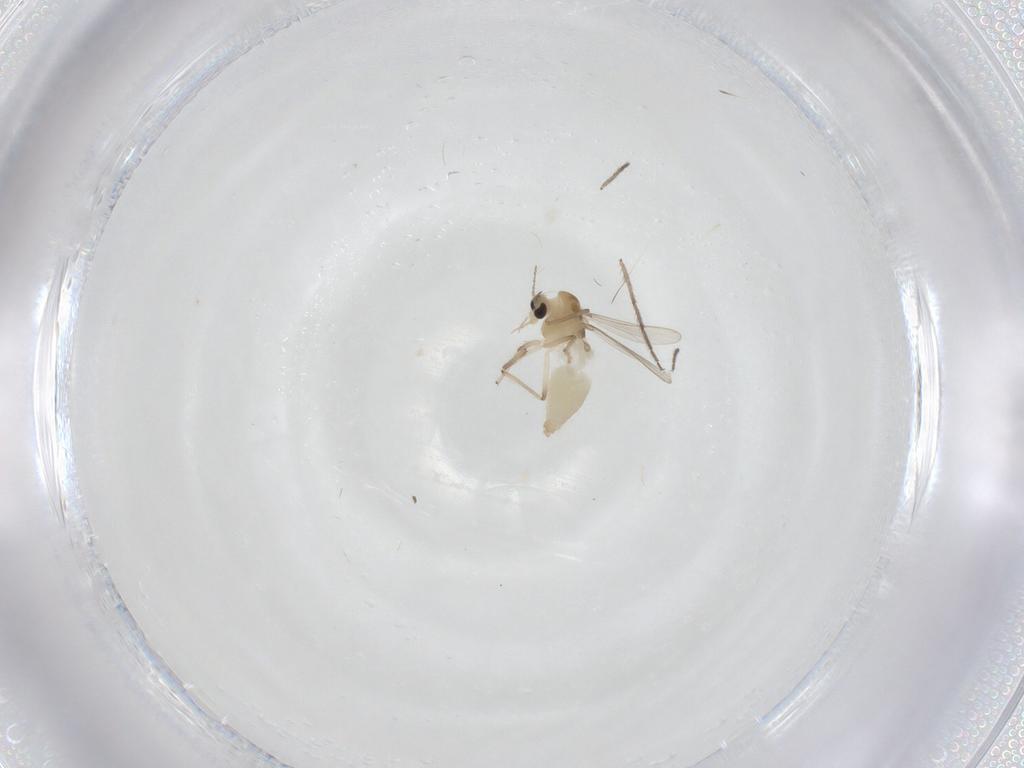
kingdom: Animalia
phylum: Arthropoda
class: Insecta
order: Diptera
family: Chironomidae
